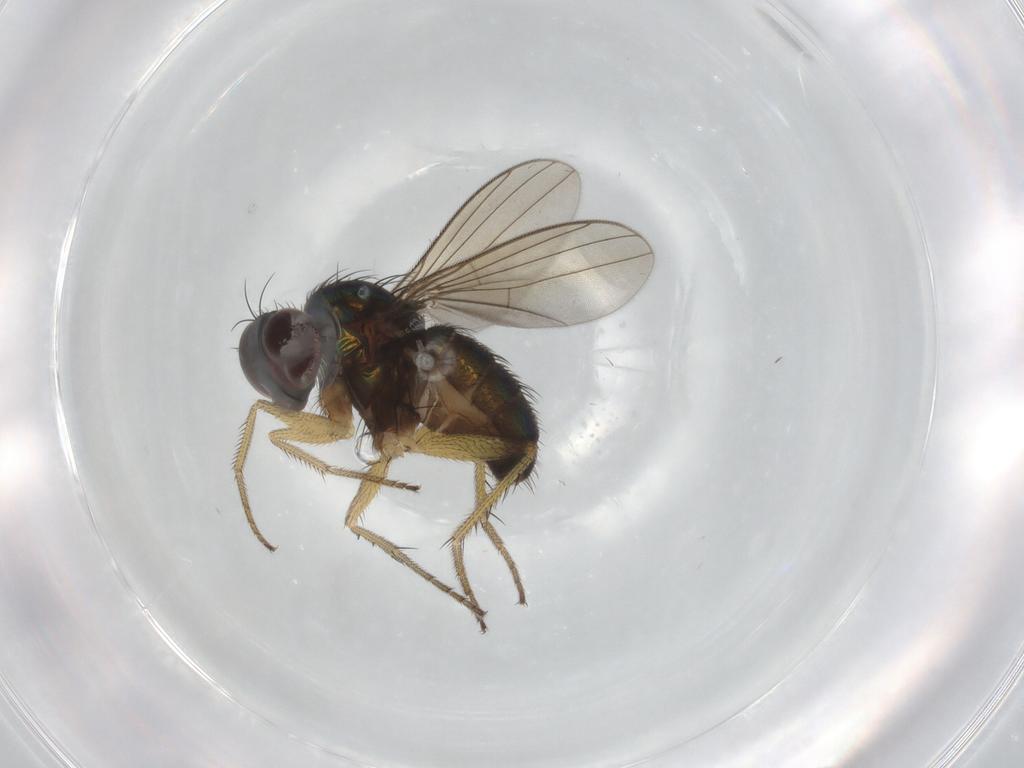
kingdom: Animalia
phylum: Arthropoda
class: Insecta
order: Diptera
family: Dolichopodidae
